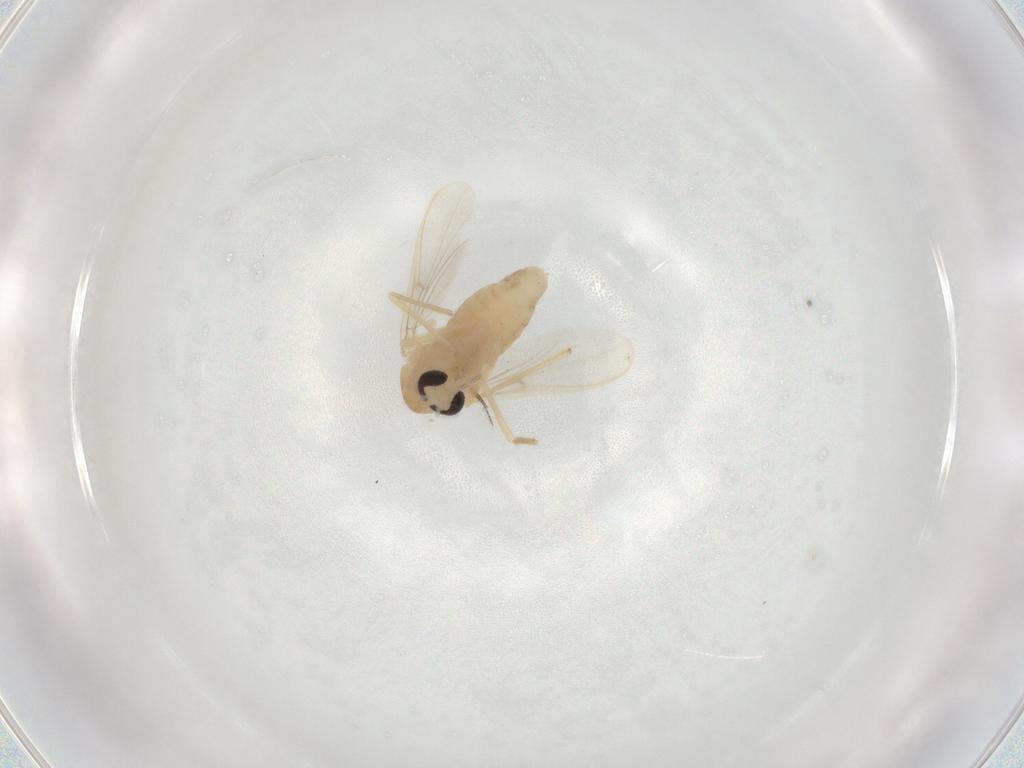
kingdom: Animalia
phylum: Arthropoda
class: Insecta
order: Diptera
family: Chironomidae
